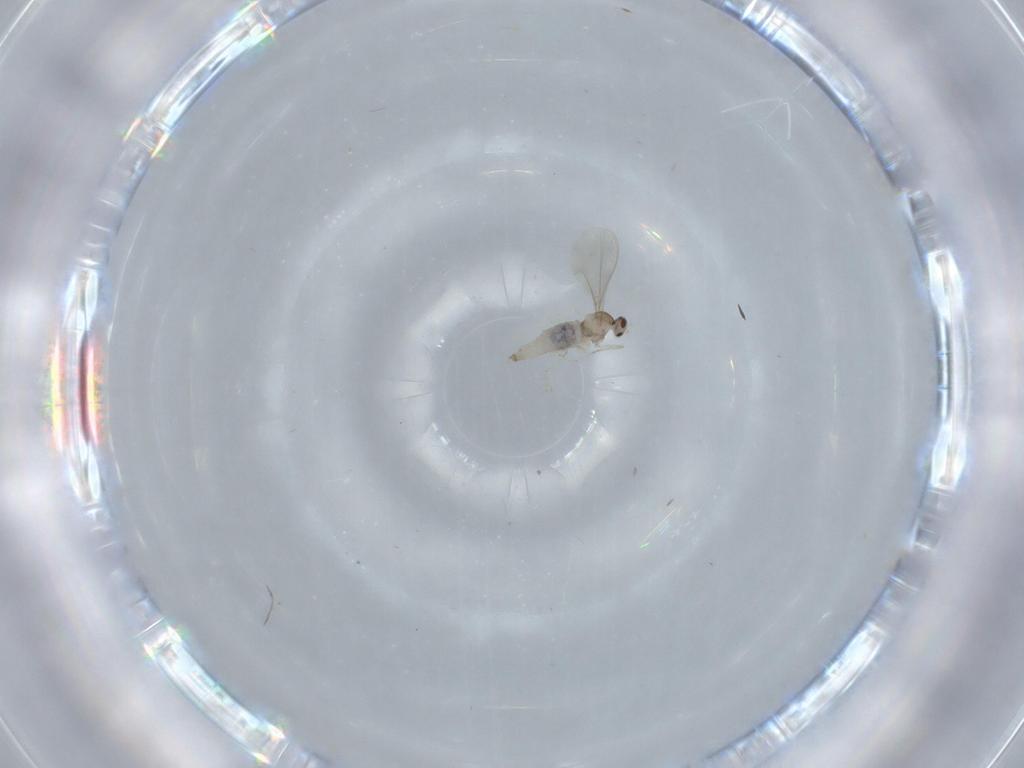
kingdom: Animalia
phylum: Arthropoda
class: Insecta
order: Diptera
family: Cecidomyiidae
